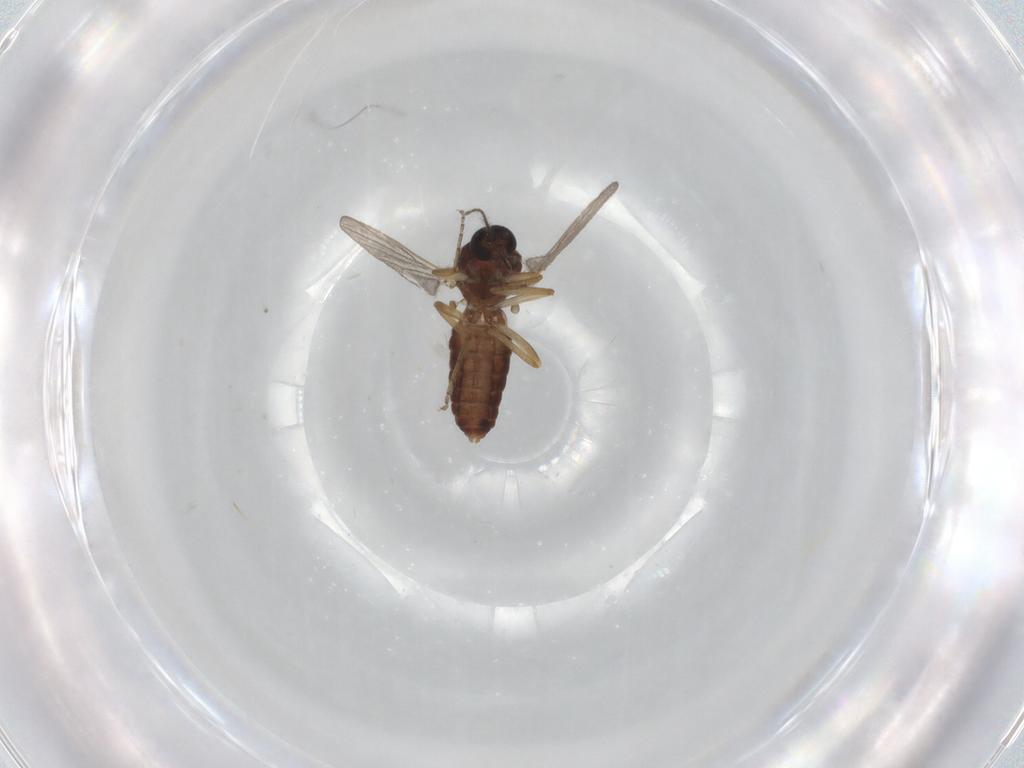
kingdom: Animalia
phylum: Arthropoda
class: Insecta
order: Diptera
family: Ceratopogonidae
